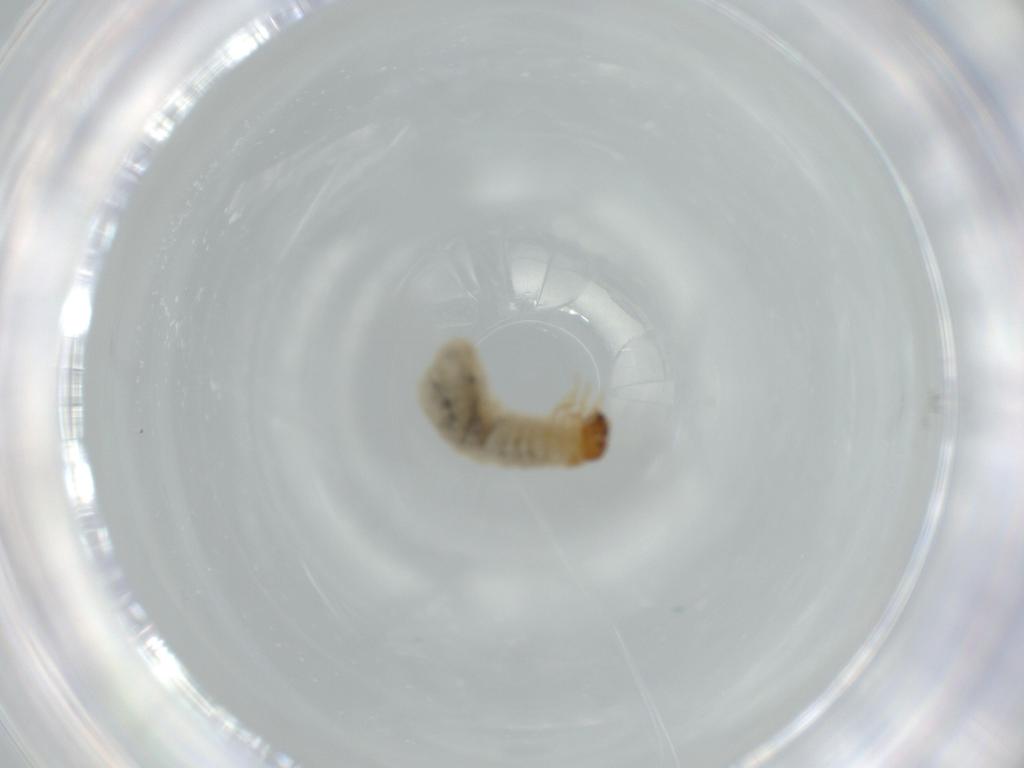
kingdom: Animalia
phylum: Arthropoda
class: Insecta
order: Coleoptera
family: Chrysomelidae
